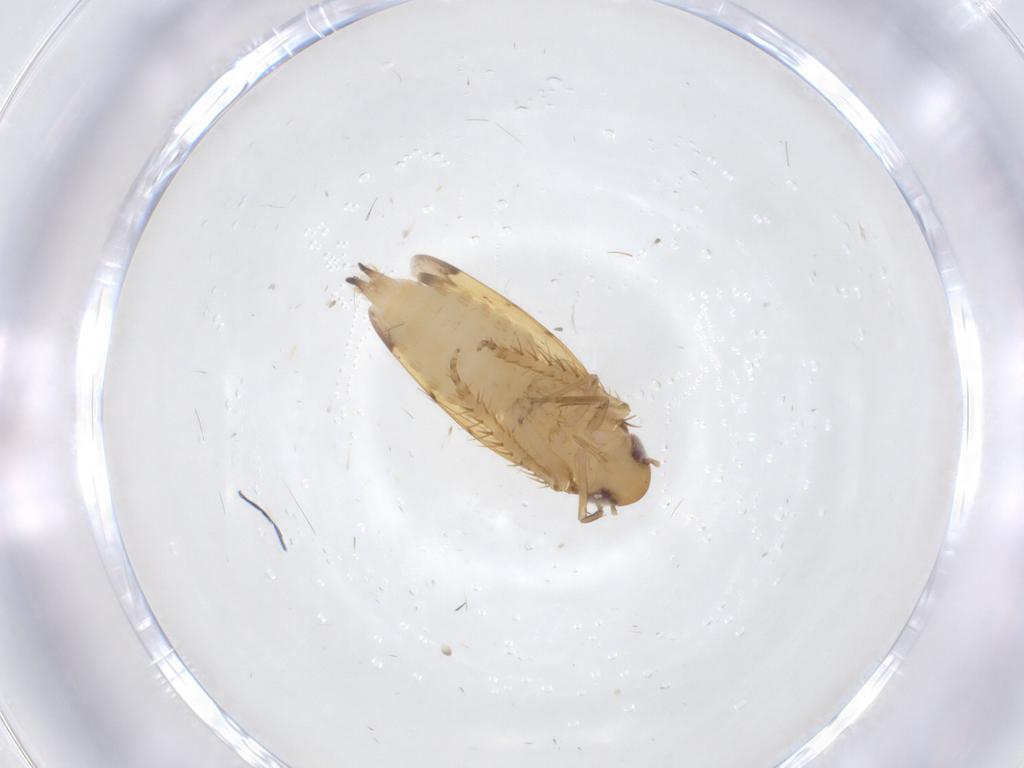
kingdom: Animalia
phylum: Arthropoda
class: Insecta
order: Hemiptera
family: Cicadellidae
